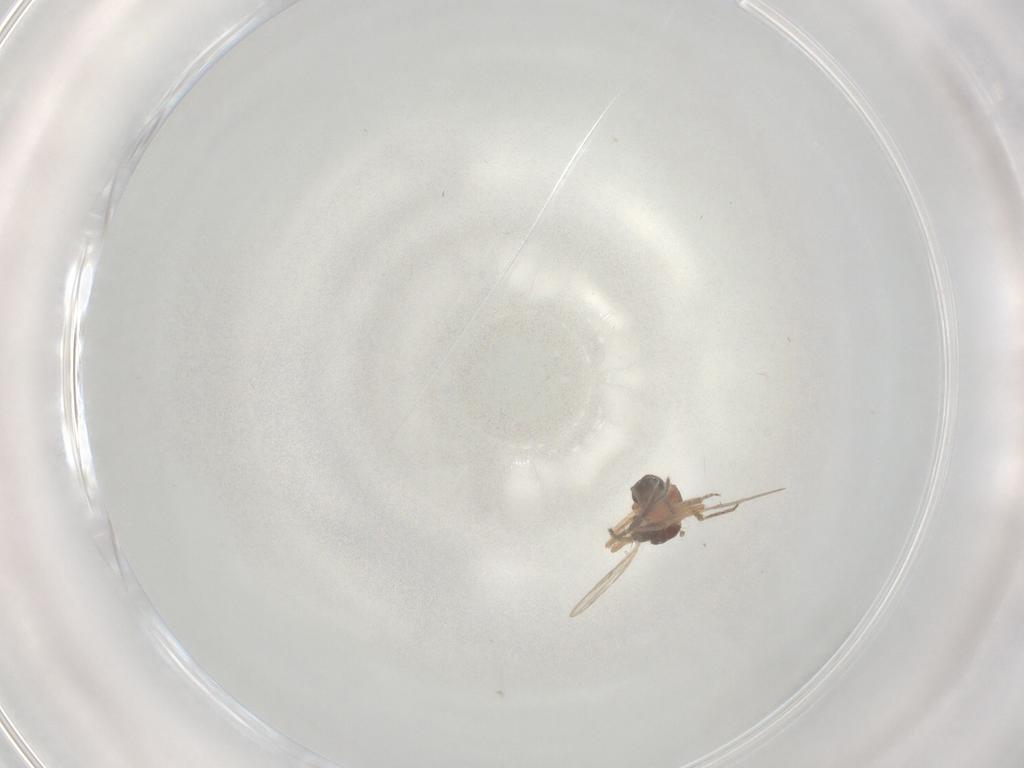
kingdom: Animalia
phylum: Arthropoda
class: Insecta
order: Diptera
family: Ceratopogonidae
